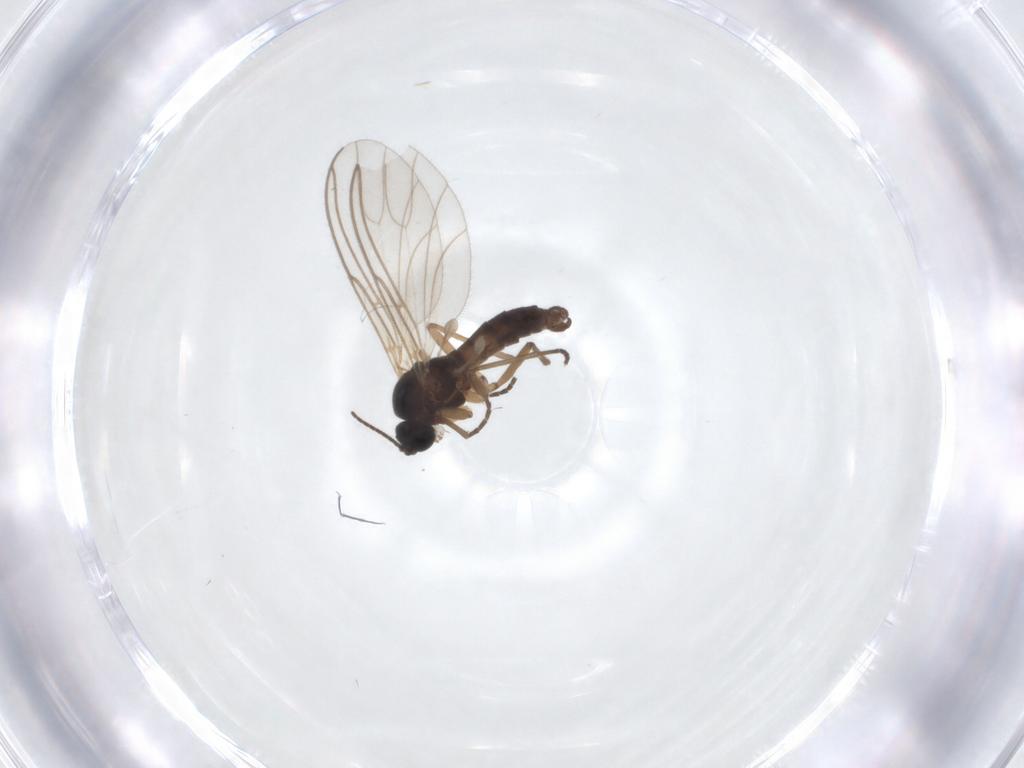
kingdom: Animalia
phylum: Arthropoda
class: Insecta
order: Diptera
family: Sciaridae
